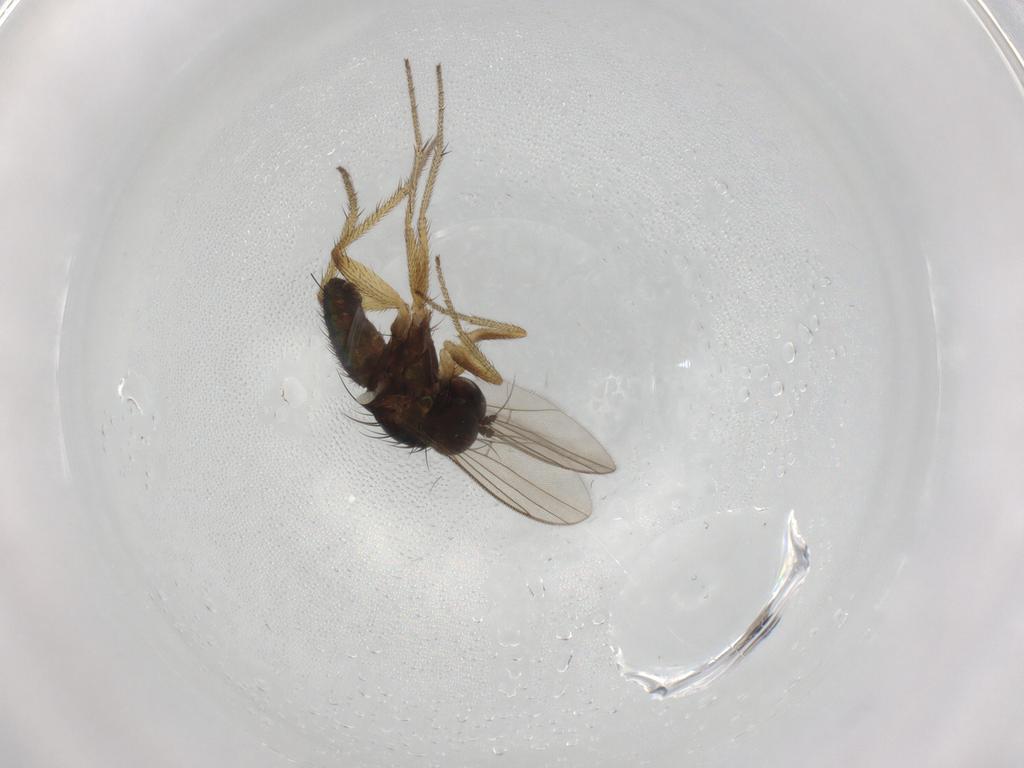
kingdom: Animalia
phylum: Arthropoda
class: Insecta
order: Diptera
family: Drosophilidae
